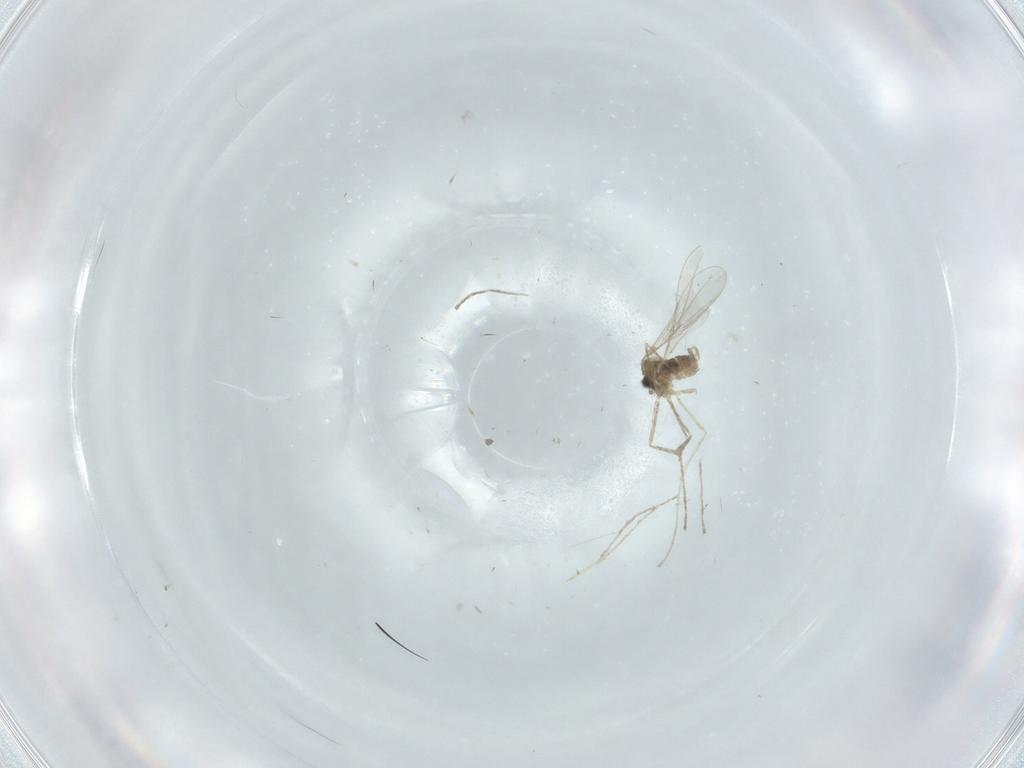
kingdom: Animalia
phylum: Arthropoda
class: Insecta
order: Diptera
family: Cecidomyiidae
